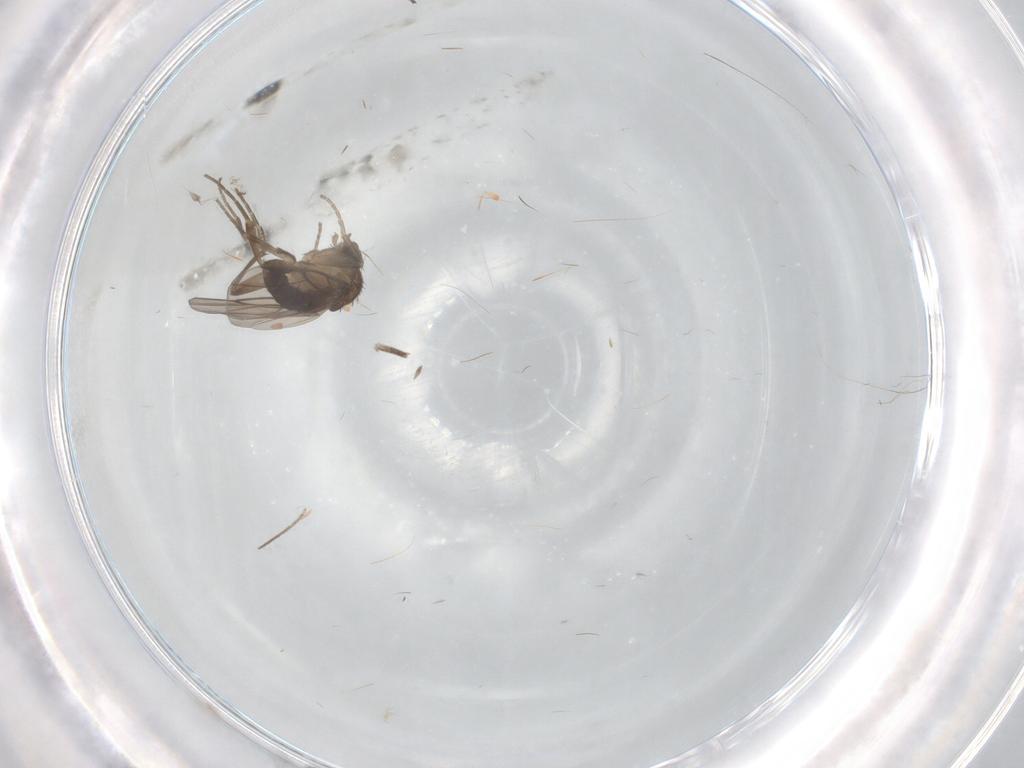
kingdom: Animalia
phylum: Arthropoda
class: Insecta
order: Diptera
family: Phoridae
